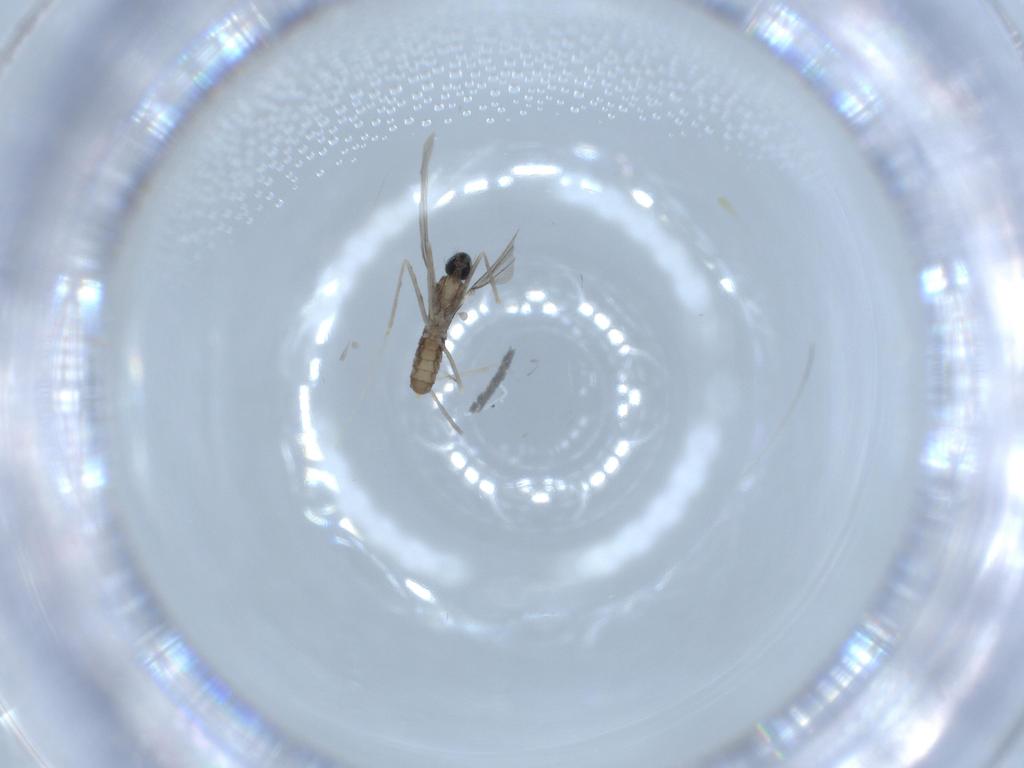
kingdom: Animalia
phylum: Arthropoda
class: Insecta
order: Diptera
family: Cecidomyiidae
